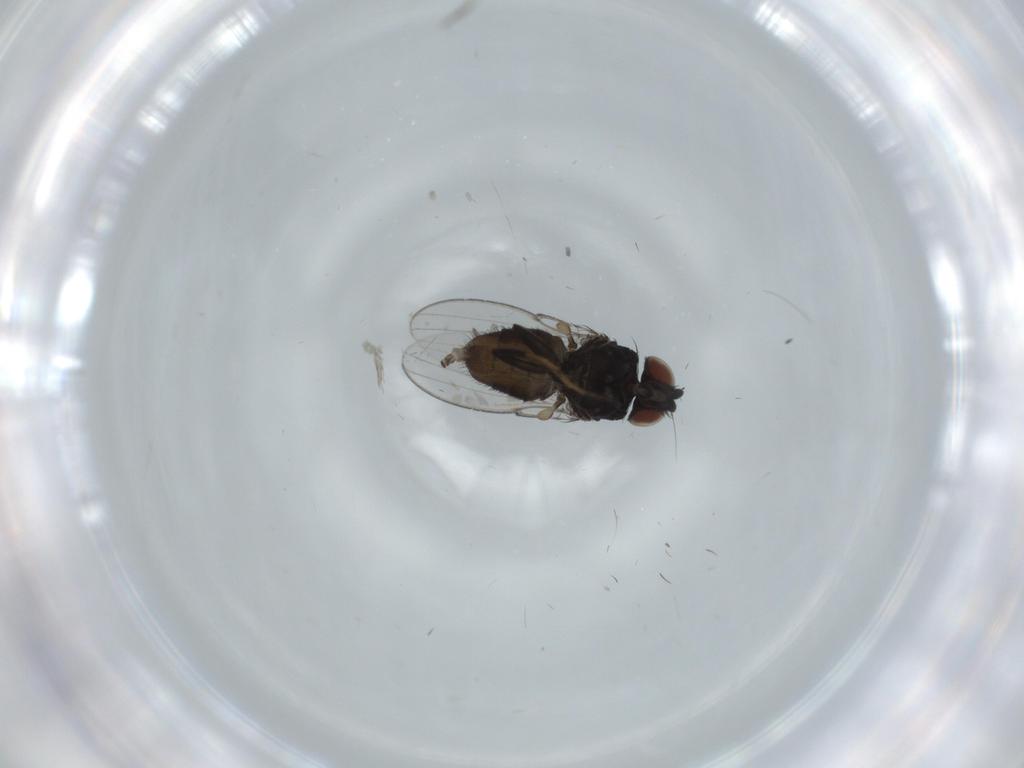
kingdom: Animalia
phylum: Arthropoda
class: Insecta
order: Diptera
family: Milichiidae
